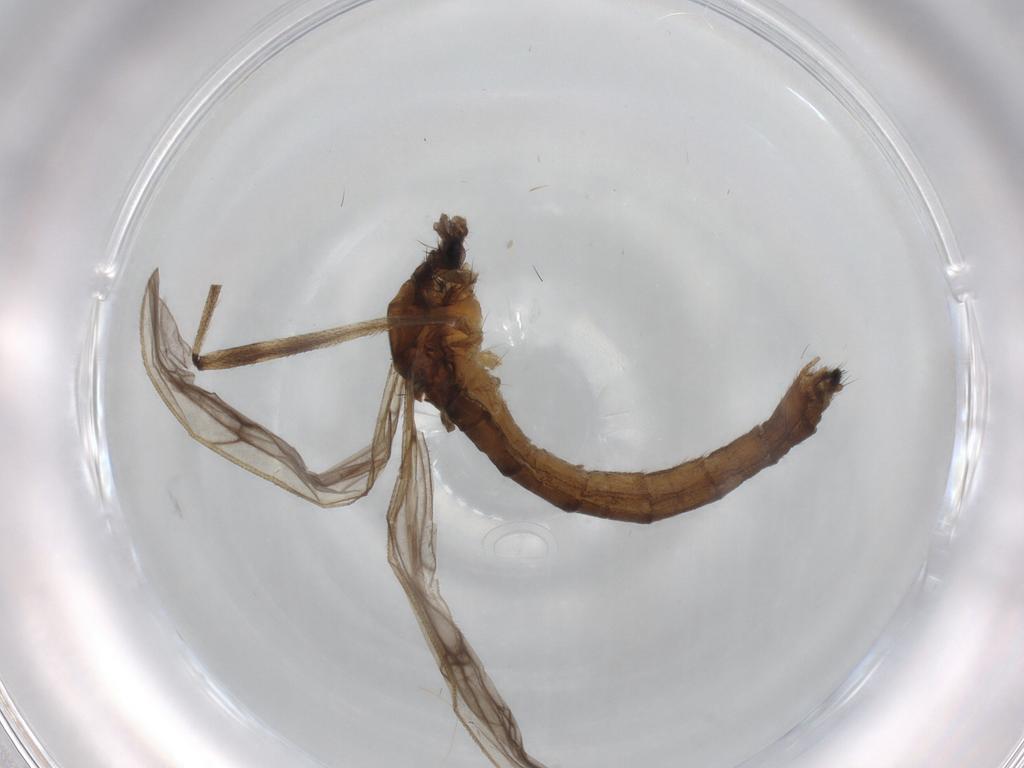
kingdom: Animalia
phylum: Arthropoda
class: Insecta
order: Diptera
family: Limoniidae
